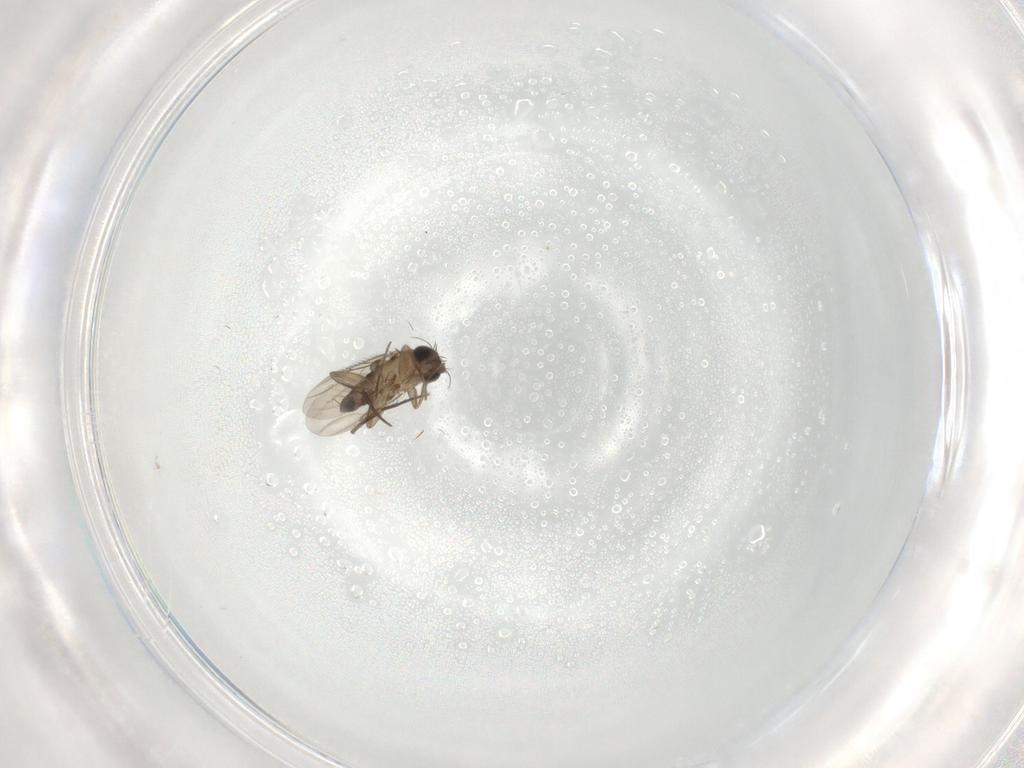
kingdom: Animalia
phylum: Arthropoda
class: Insecta
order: Diptera
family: Phoridae
